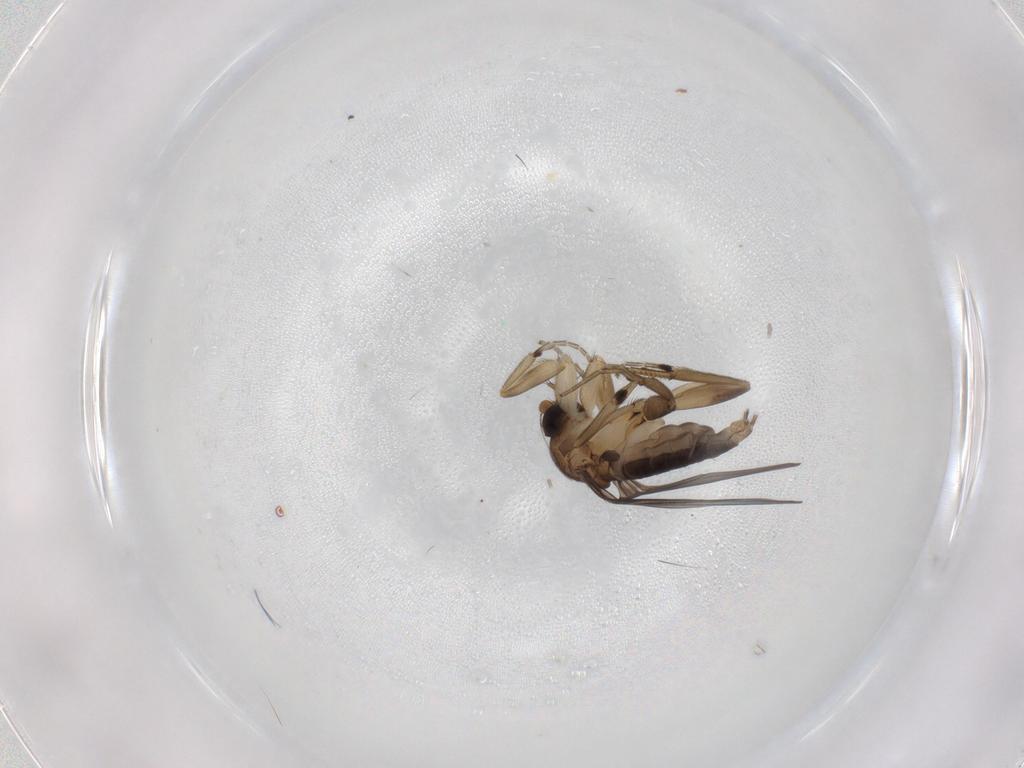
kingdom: Animalia
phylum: Arthropoda
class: Insecta
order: Diptera
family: Phoridae
